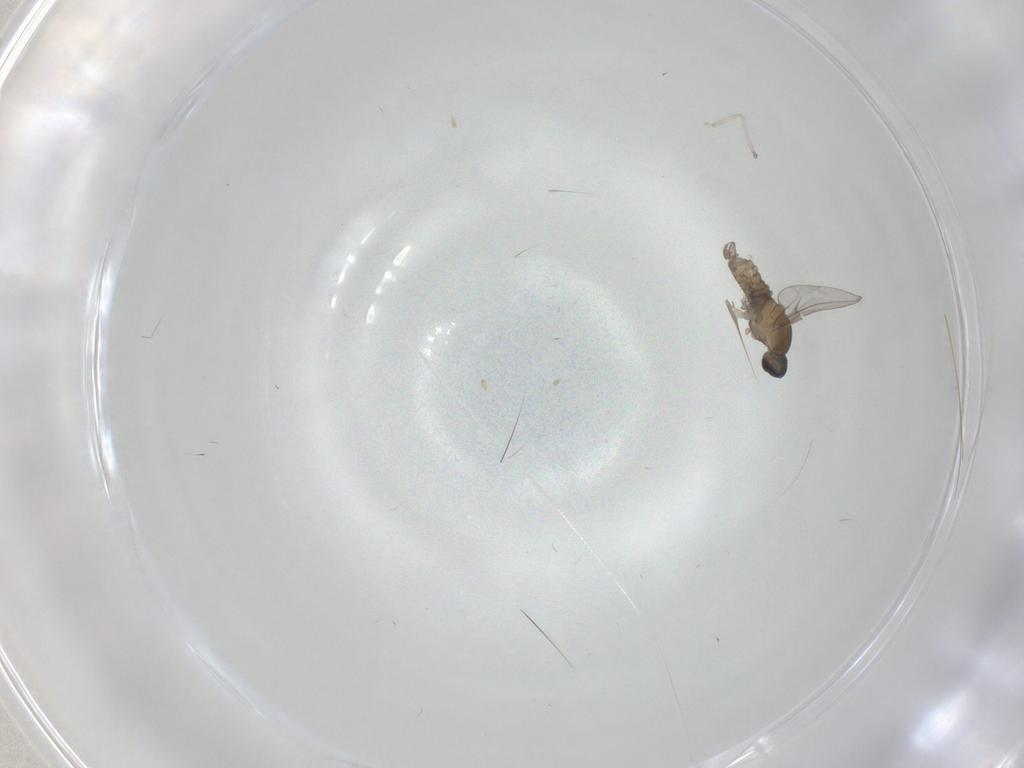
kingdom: Animalia
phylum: Arthropoda
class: Insecta
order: Diptera
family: Cecidomyiidae
